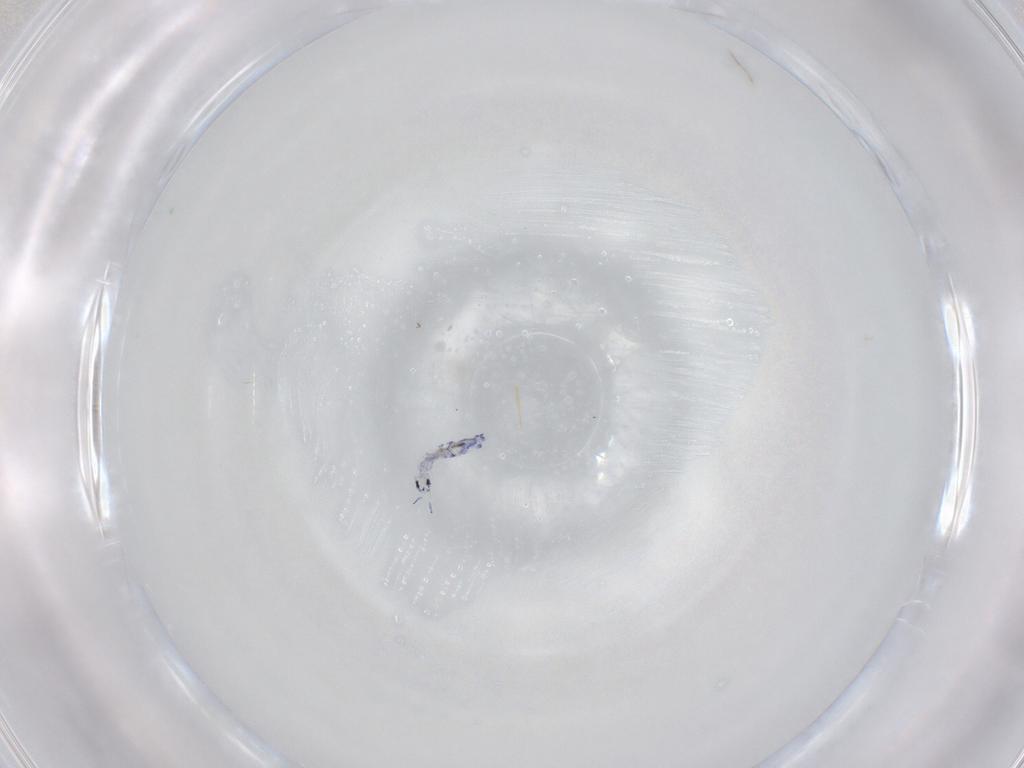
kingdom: Animalia
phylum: Arthropoda
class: Collembola
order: Entomobryomorpha
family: Entomobryidae
